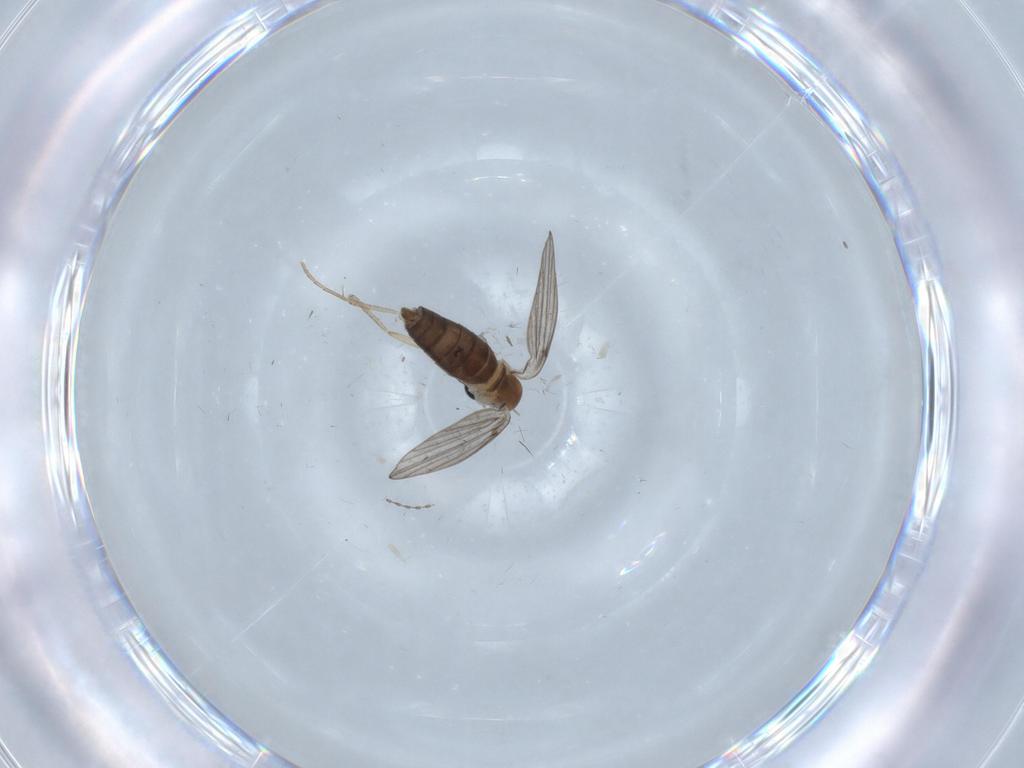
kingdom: Animalia
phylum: Arthropoda
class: Insecta
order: Diptera
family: Psychodidae
